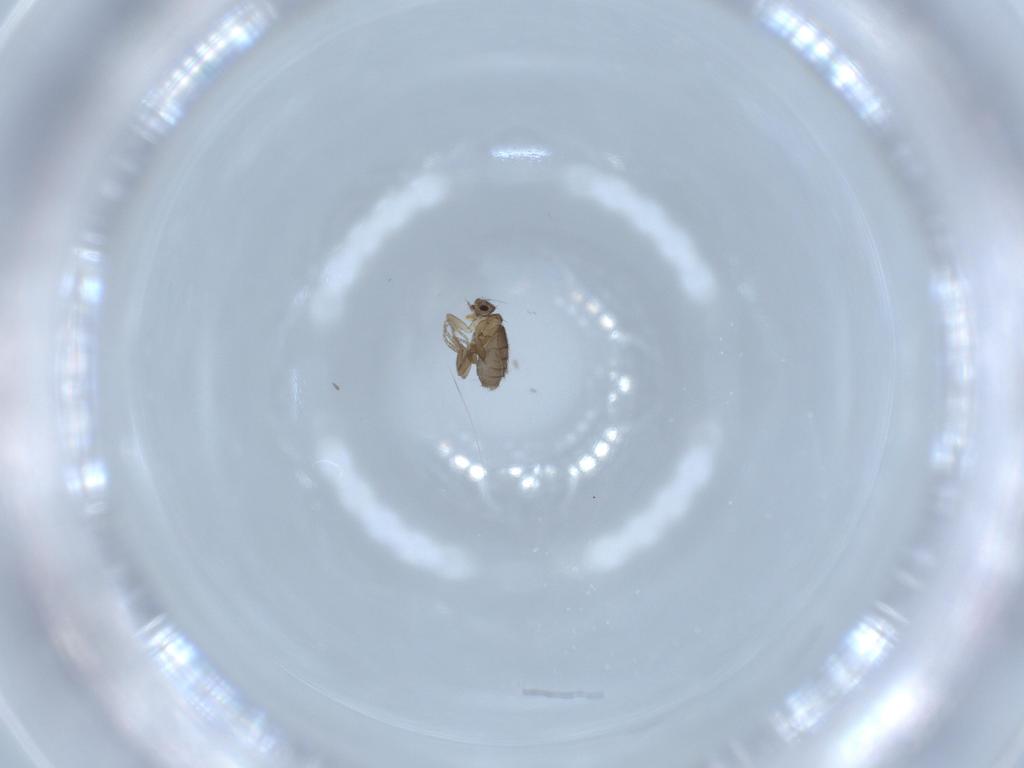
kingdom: Animalia
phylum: Arthropoda
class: Insecta
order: Diptera
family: Phoridae
